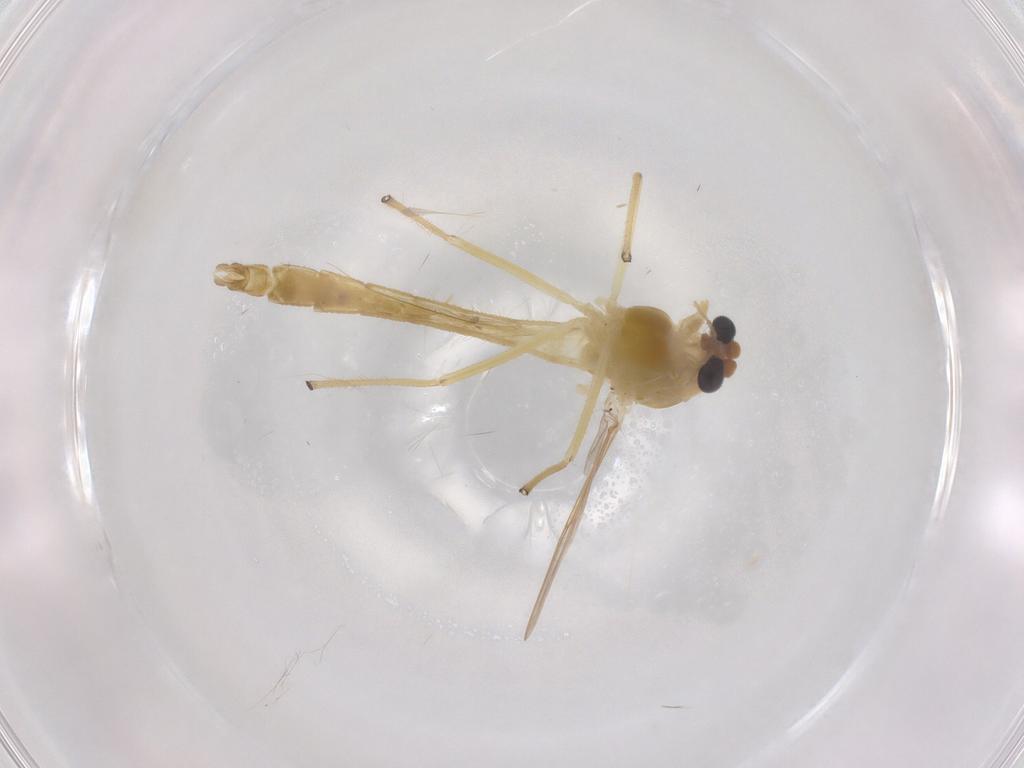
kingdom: Animalia
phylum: Arthropoda
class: Insecta
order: Diptera
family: Chironomidae
